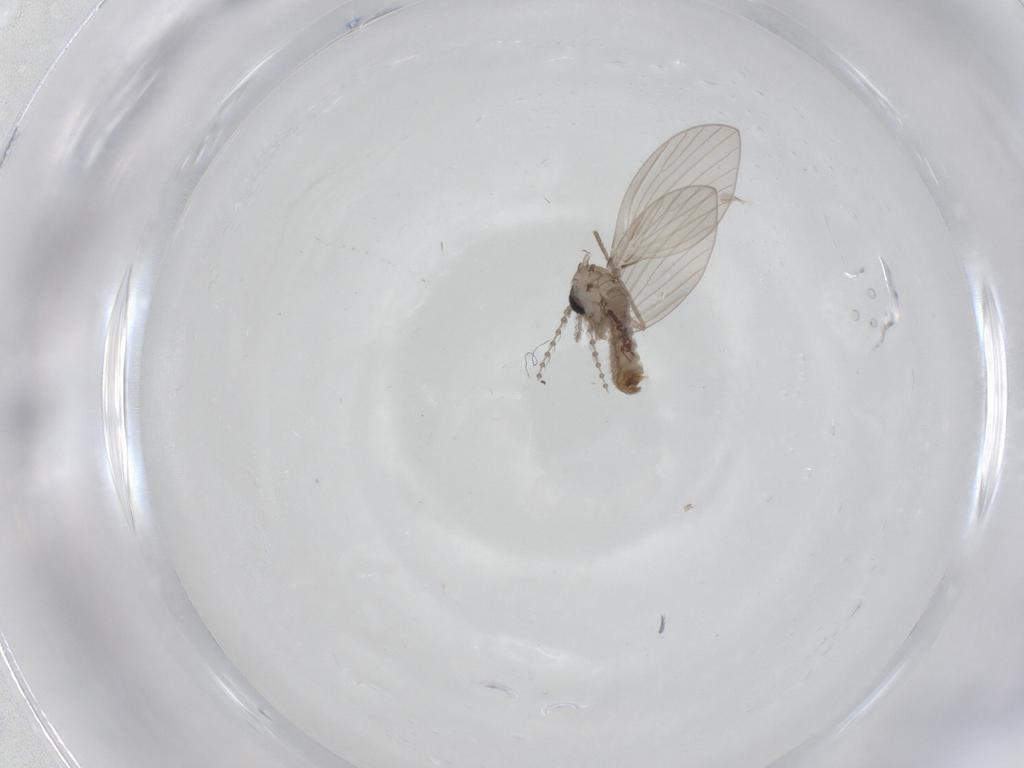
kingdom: Animalia
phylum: Arthropoda
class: Insecta
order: Diptera
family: Psychodidae
